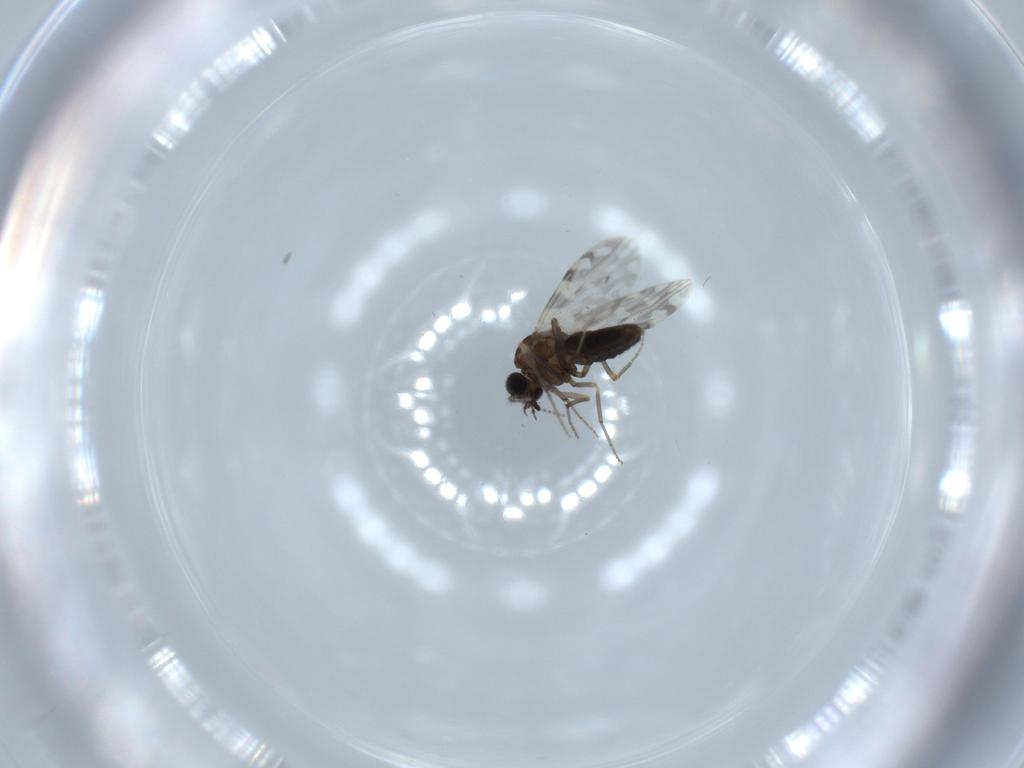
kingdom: Animalia
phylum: Arthropoda
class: Insecta
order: Diptera
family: Ceratopogonidae
